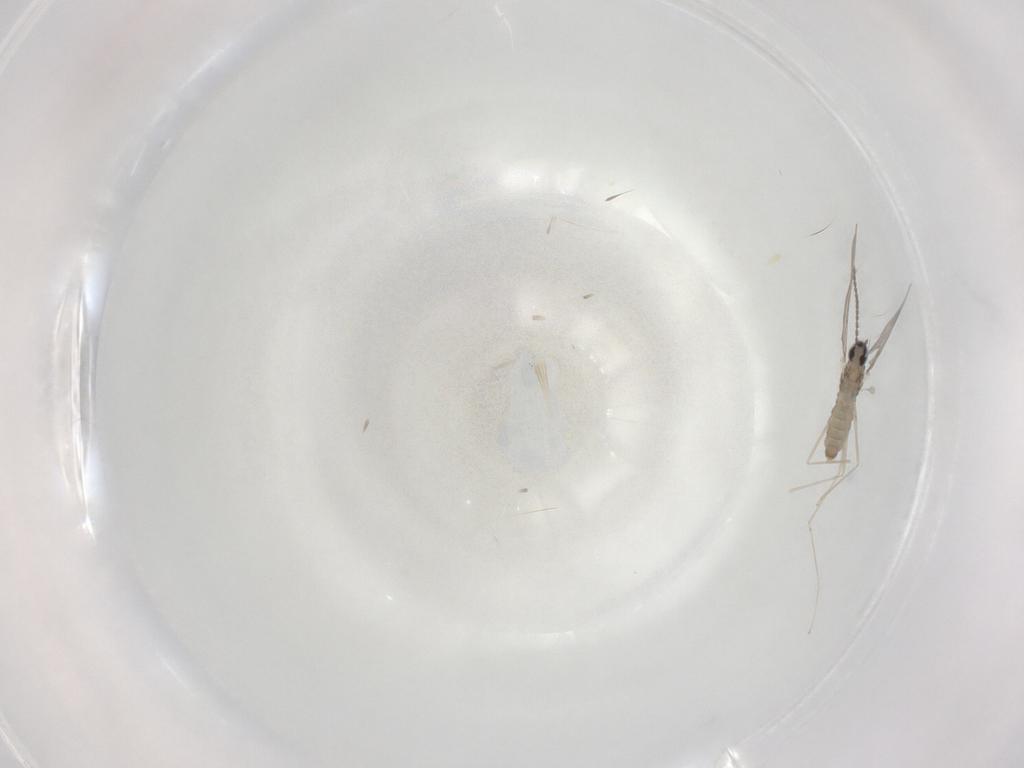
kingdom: Animalia
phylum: Arthropoda
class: Insecta
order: Diptera
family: Cecidomyiidae
